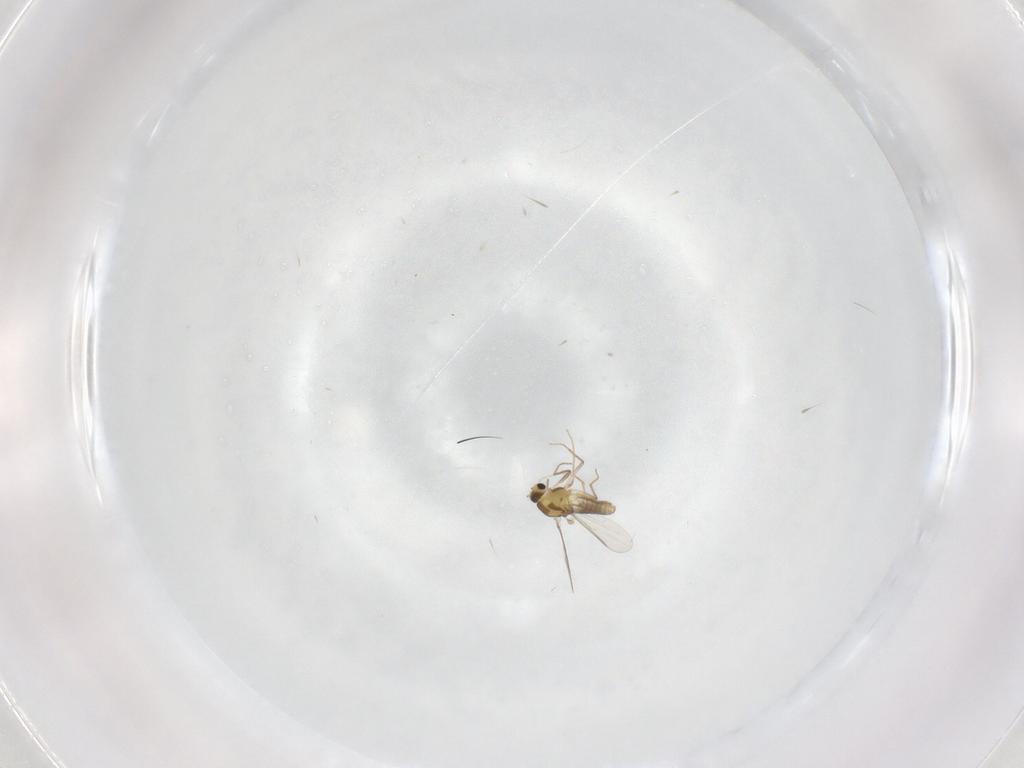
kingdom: Animalia
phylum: Arthropoda
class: Insecta
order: Diptera
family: Chironomidae
